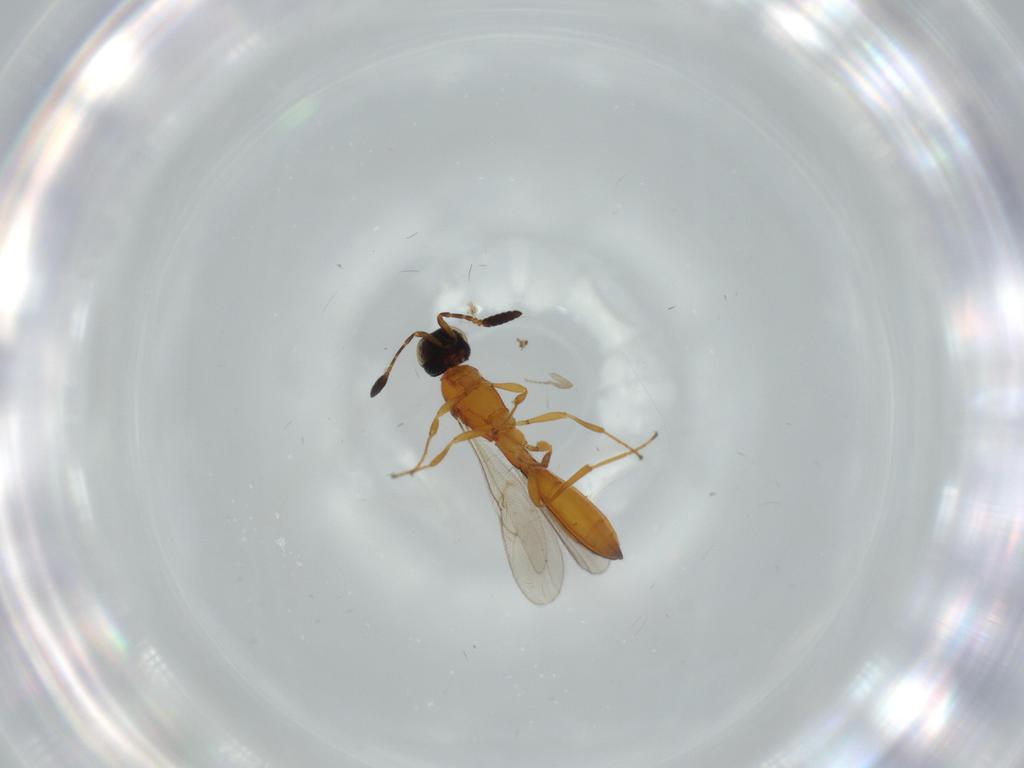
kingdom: Animalia
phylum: Arthropoda
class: Insecta
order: Hymenoptera
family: Scelionidae
